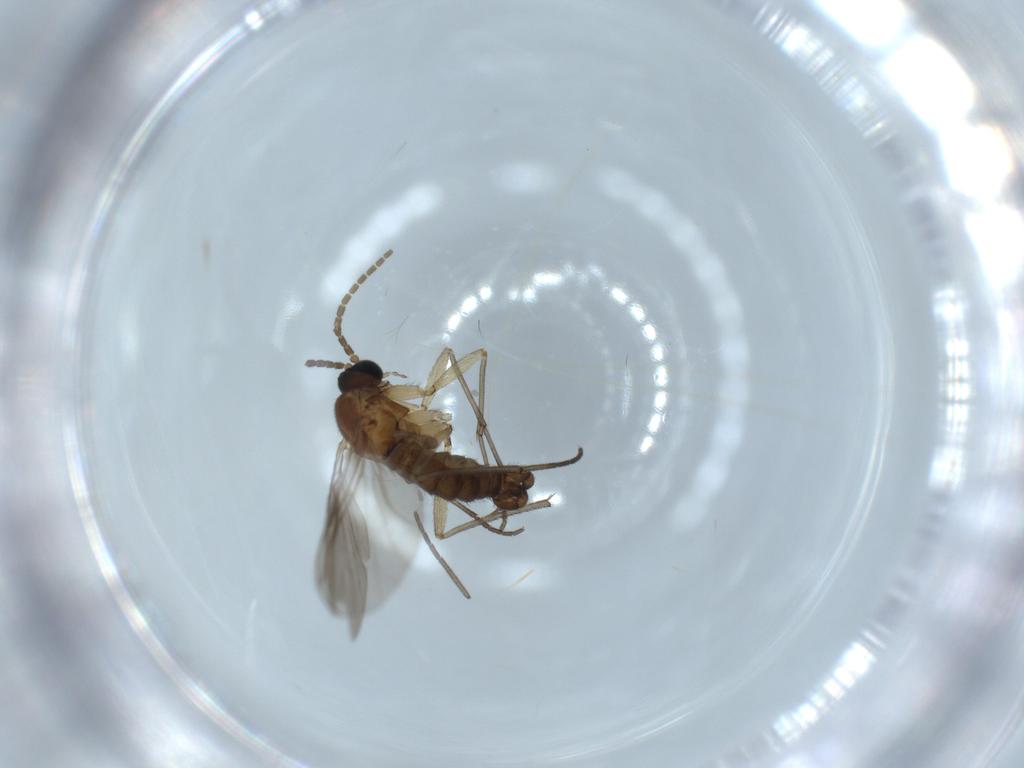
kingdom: Animalia
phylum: Arthropoda
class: Insecta
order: Diptera
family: Sciaridae
